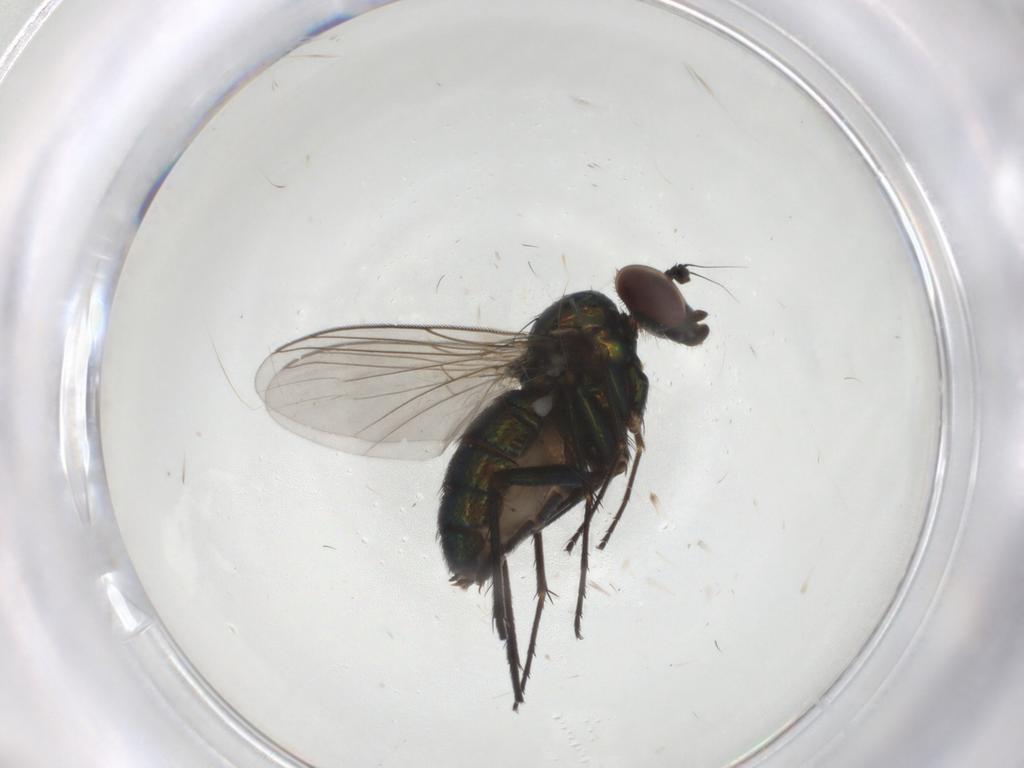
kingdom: Animalia
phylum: Arthropoda
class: Insecta
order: Diptera
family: Dolichopodidae
